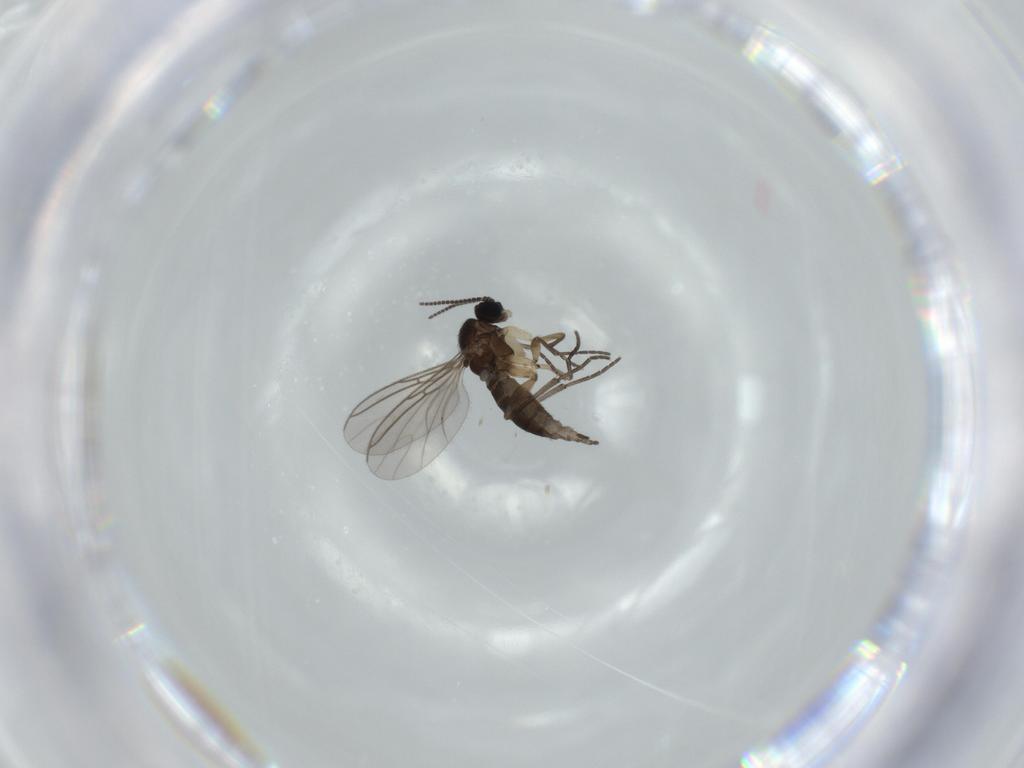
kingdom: Animalia
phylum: Arthropoda
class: Insecta
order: Diptera
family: Sciaridae
